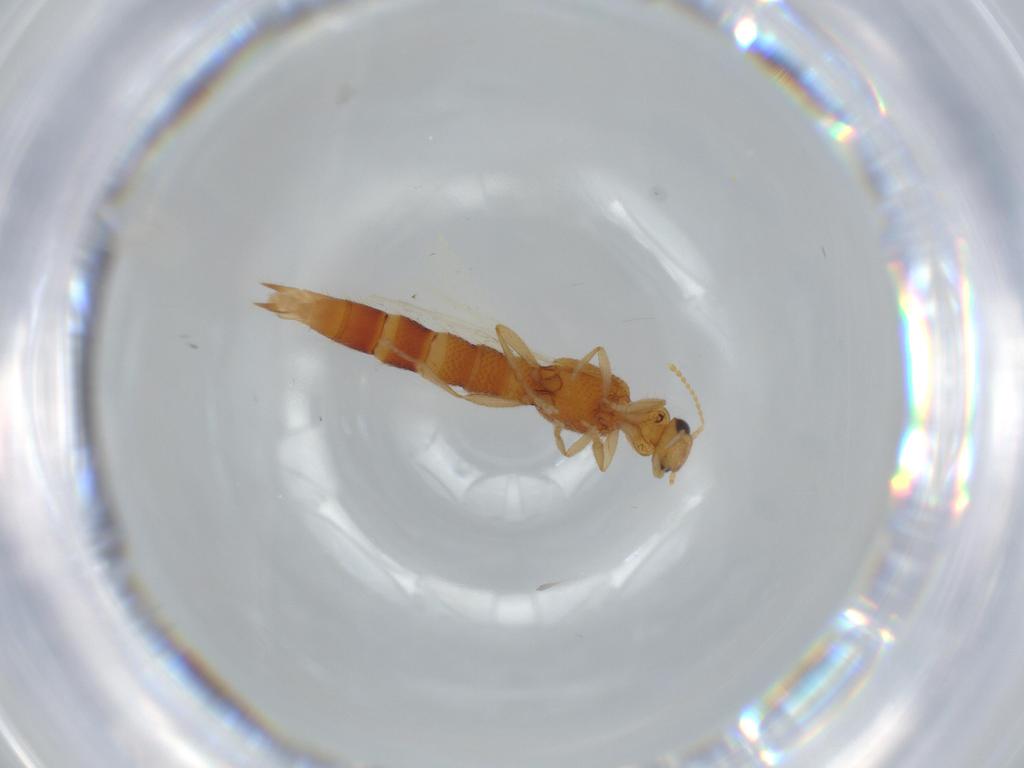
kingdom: Animalia
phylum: Arthropoda
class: Insecta
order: Coleoptera
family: Staphylinidae
